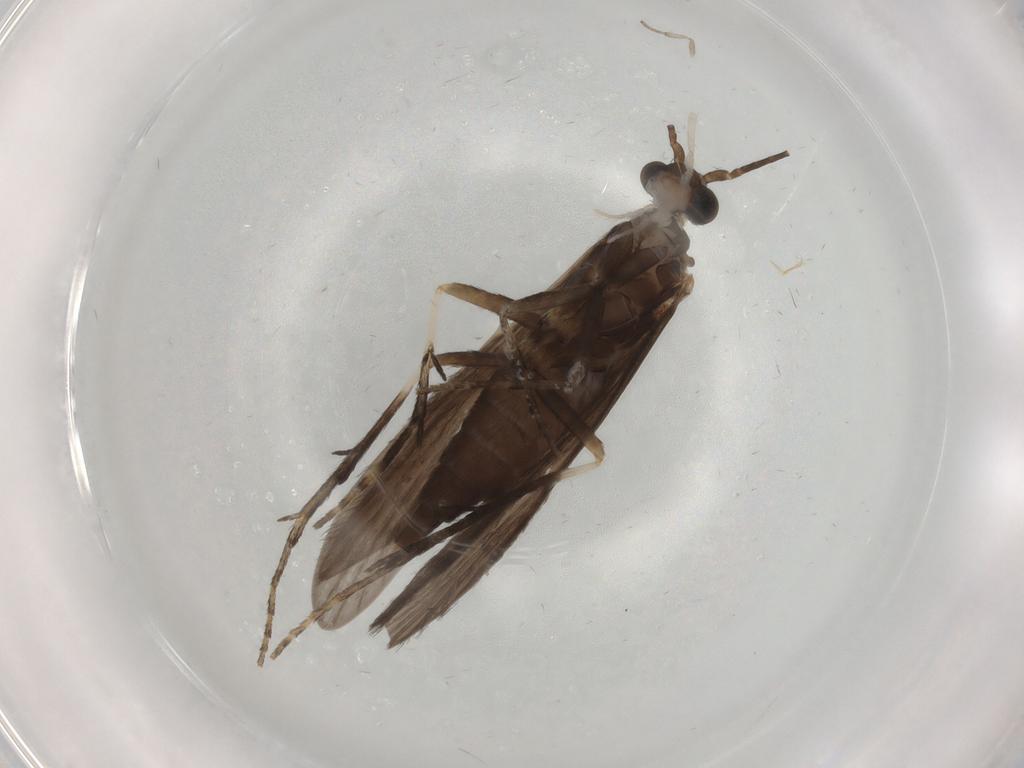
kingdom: Animalia
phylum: Arthropoda
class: Insecta
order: Trichoptera
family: Xiphocentronidae
